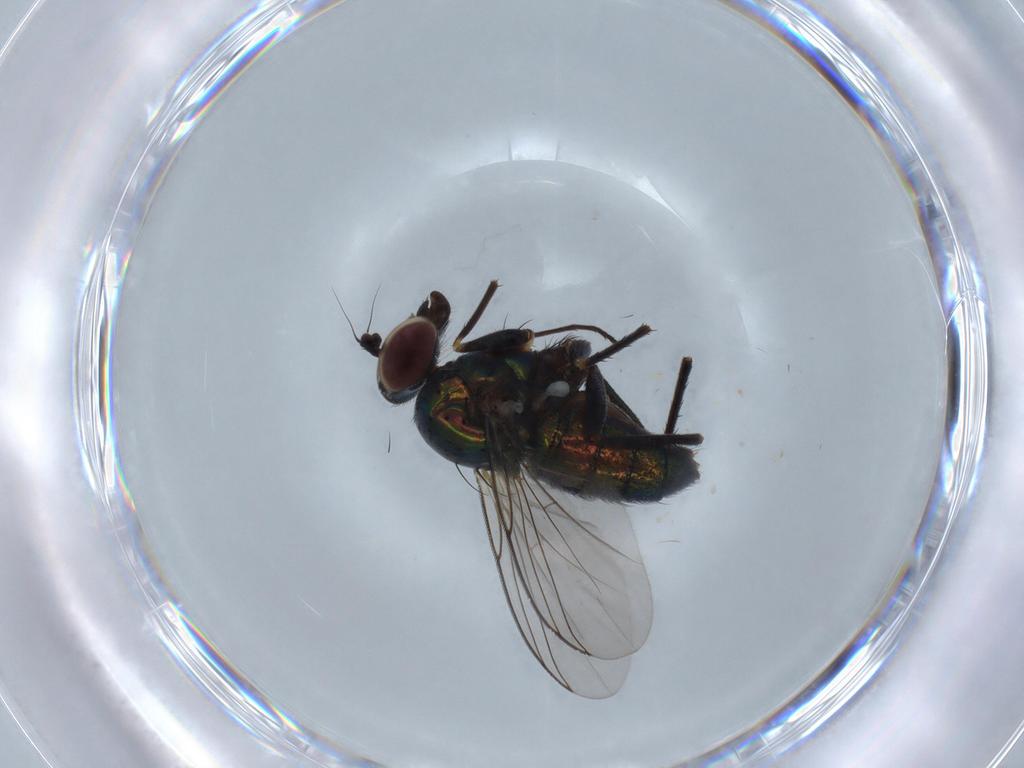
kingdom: Animalia
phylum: Arthropoda
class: Insecta
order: Diptera
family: Dolichopodidae
